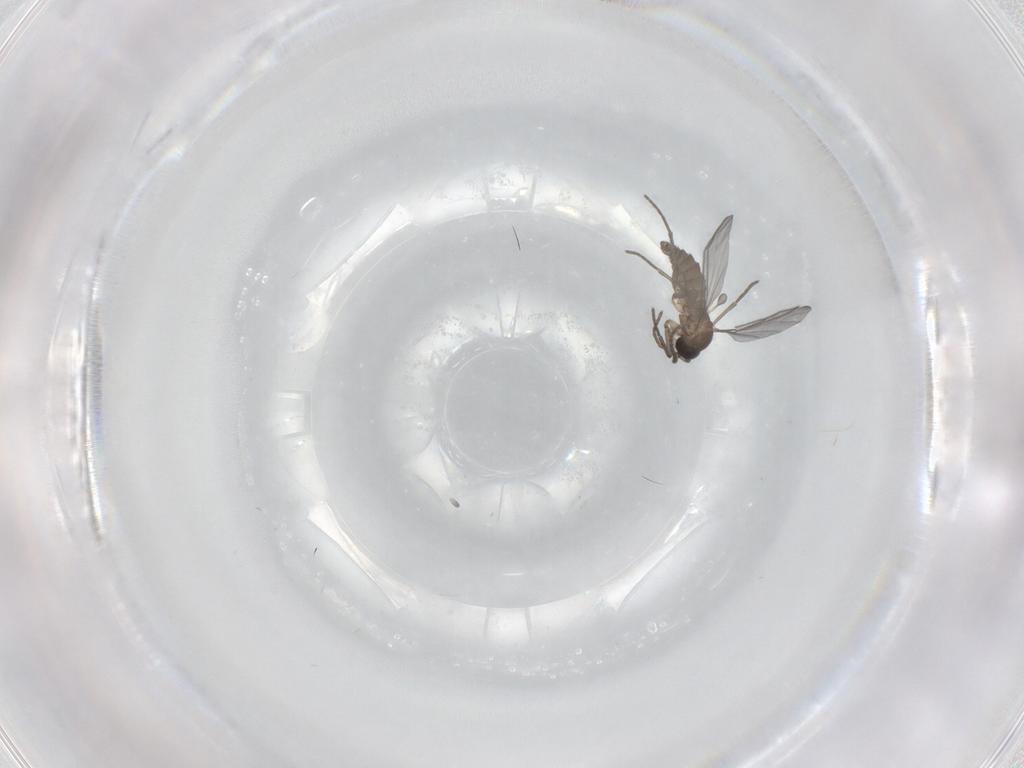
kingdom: Animalia
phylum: Arthropoda
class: Insecta
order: Diptera
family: Sciaridae
